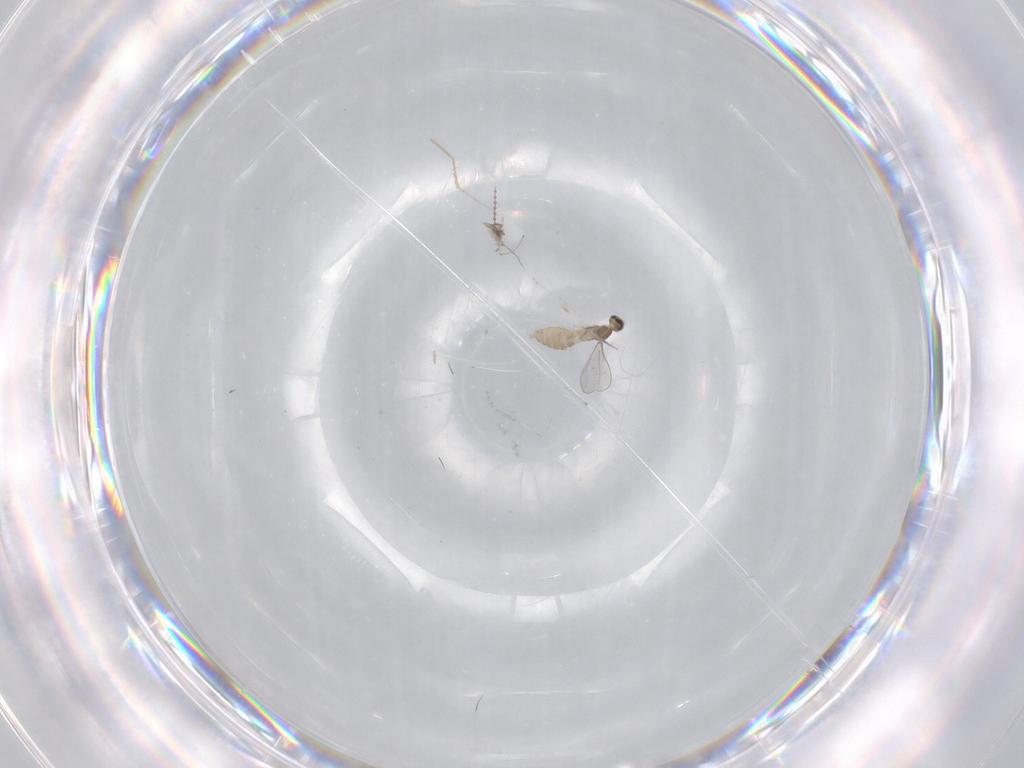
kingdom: Animalia
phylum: Arthropoda
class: Insecta
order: Diptera
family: Cecidomyiidae
